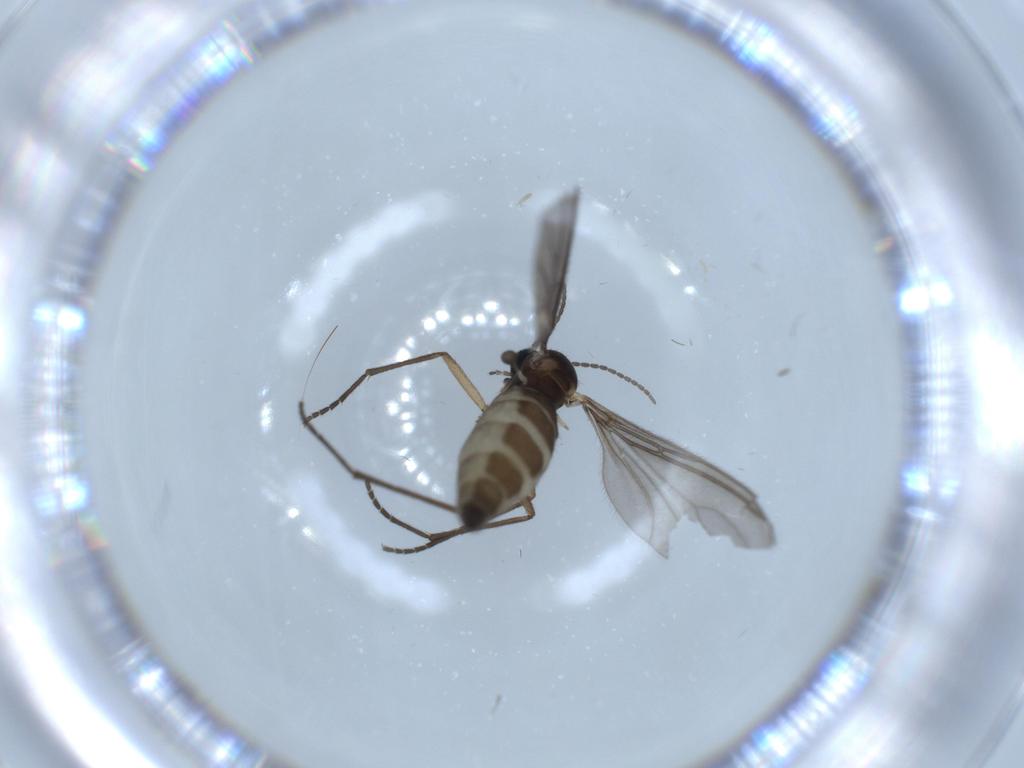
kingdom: Animalia
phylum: Arthropoda
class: Insecta
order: Diptera
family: Sciaridae
